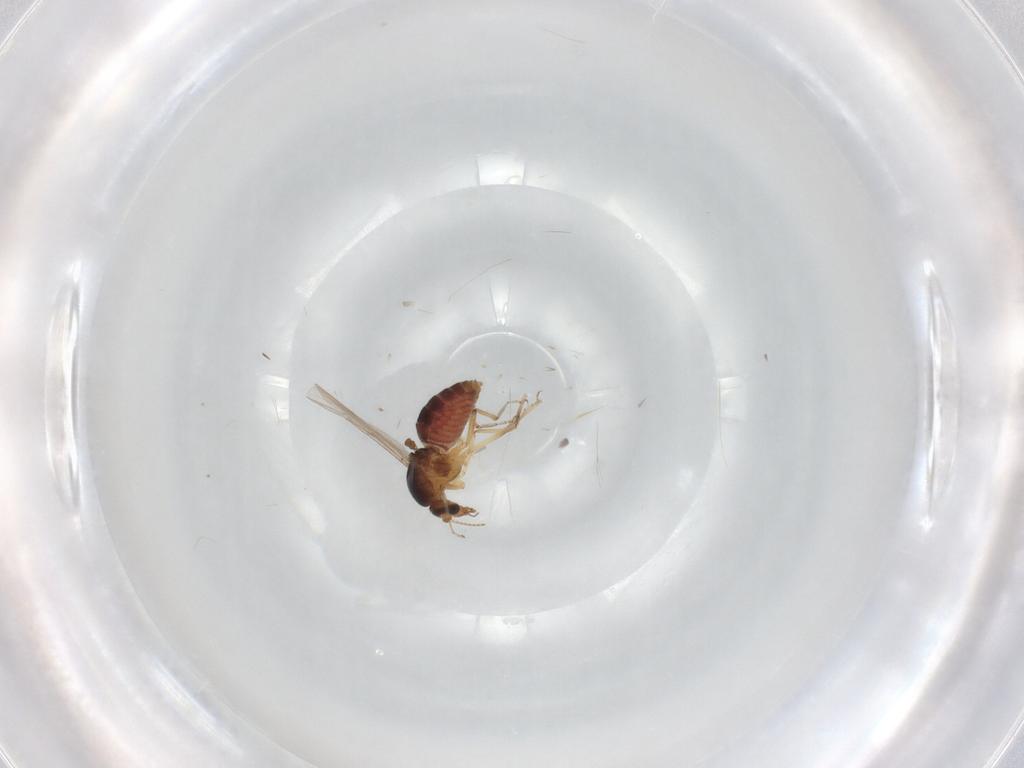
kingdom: Animalia
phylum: Arthropoda
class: Insecta
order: Diptera
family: Ceratopogonidae
